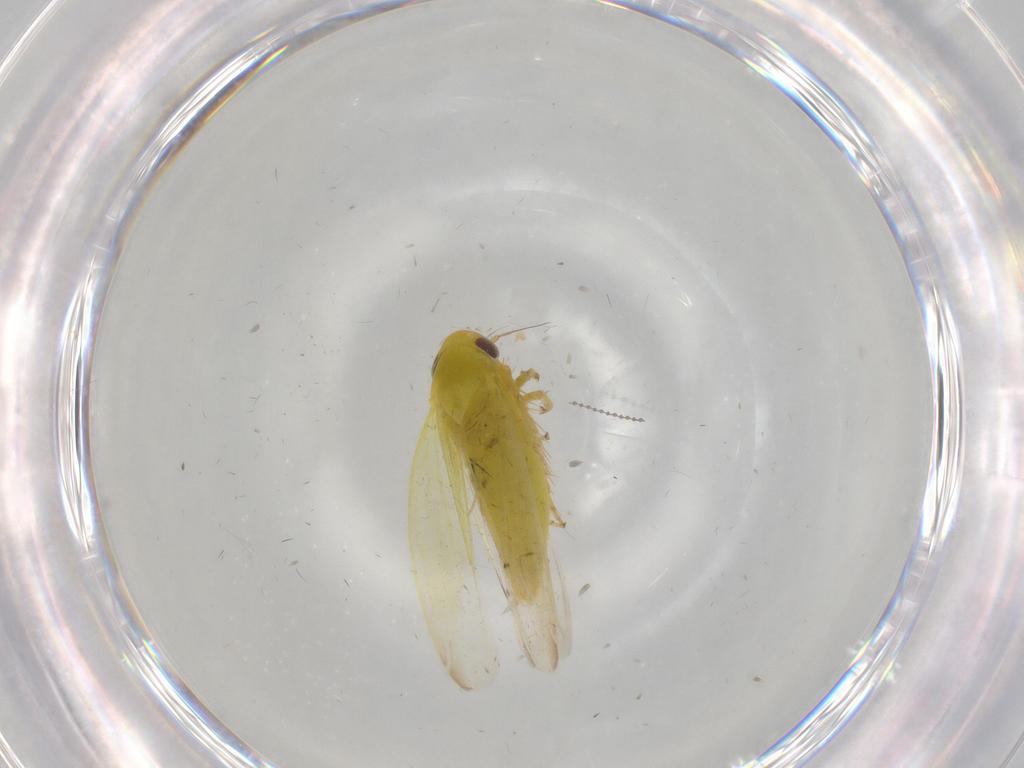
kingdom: Animalia
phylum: Arthropoda
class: Insecta
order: Hemiptera
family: Cicadellidae
